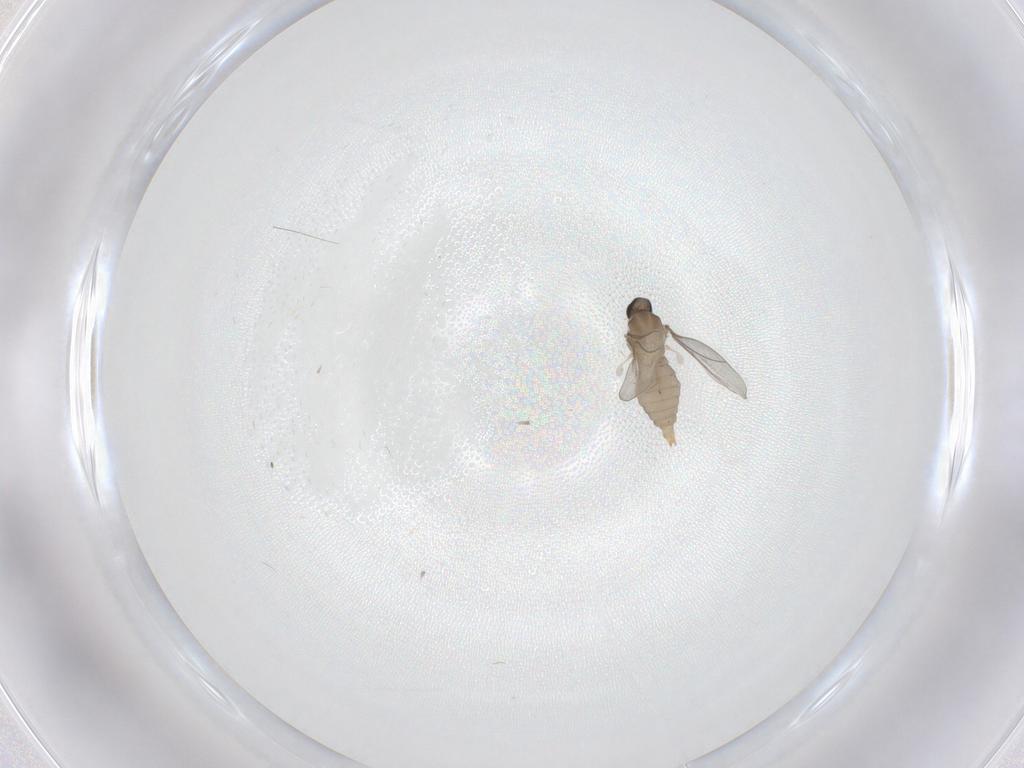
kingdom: Animalia
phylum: Arthropoda
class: Insecta
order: Diptera
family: Cecidomyiidae
